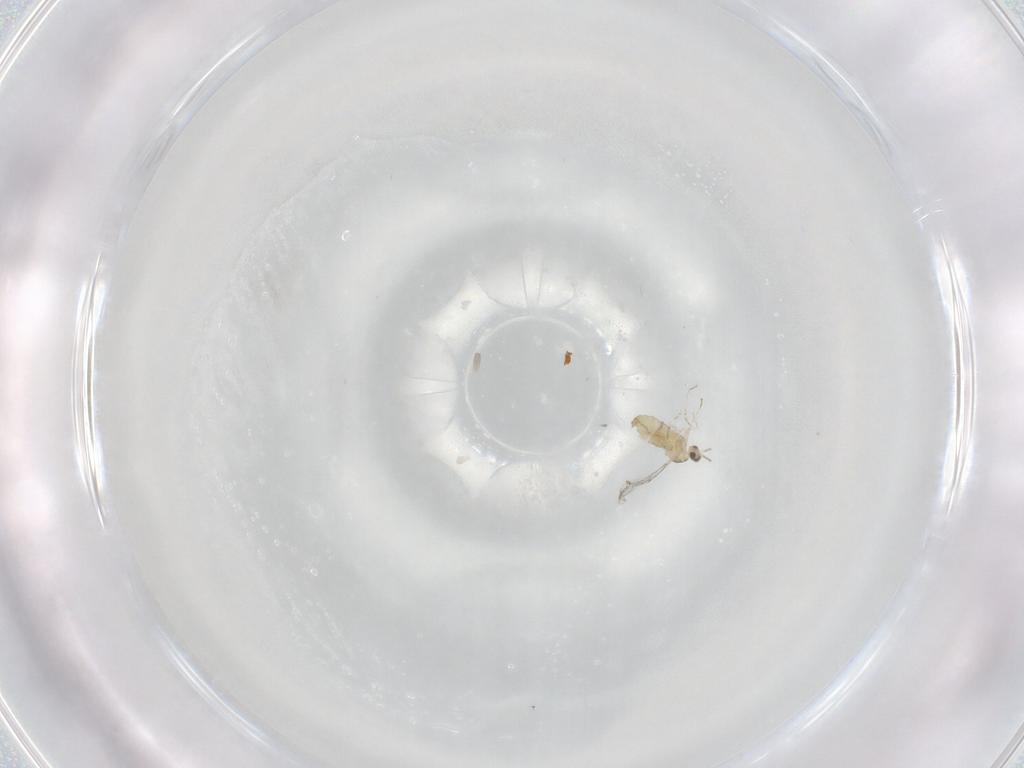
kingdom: Animalia
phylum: Arthropoda
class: Insecta
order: Diptera
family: Cecidomyiidae
